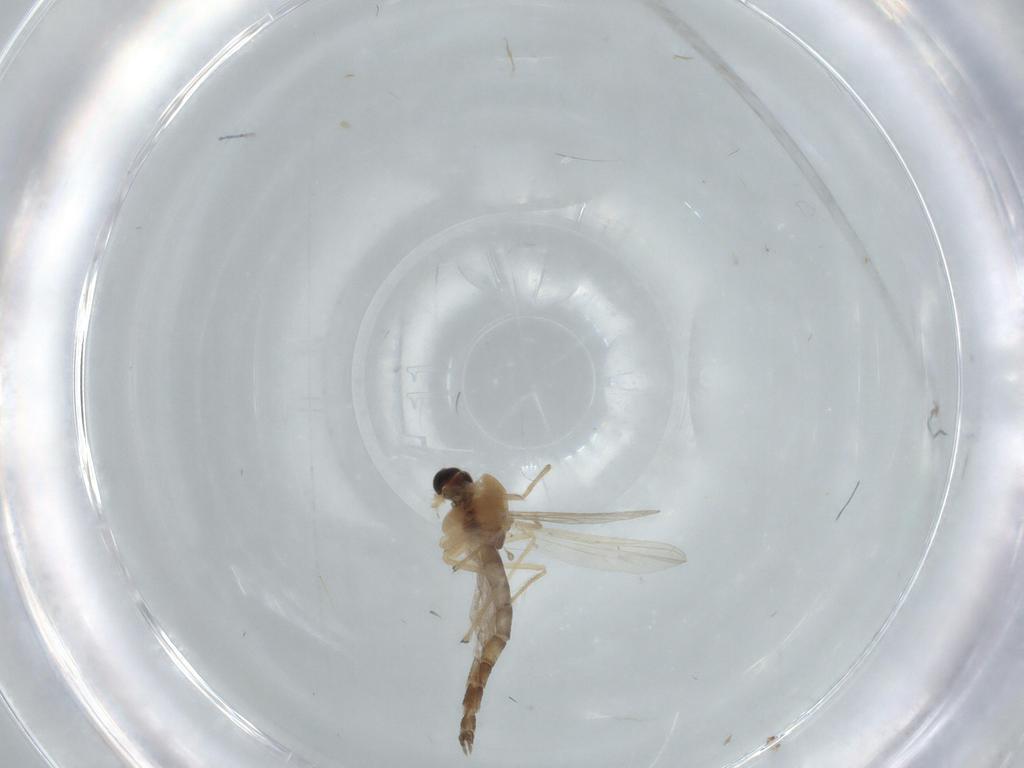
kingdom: Animalia
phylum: Arthropoda
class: Insecta
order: Diptera
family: Chironomidae
